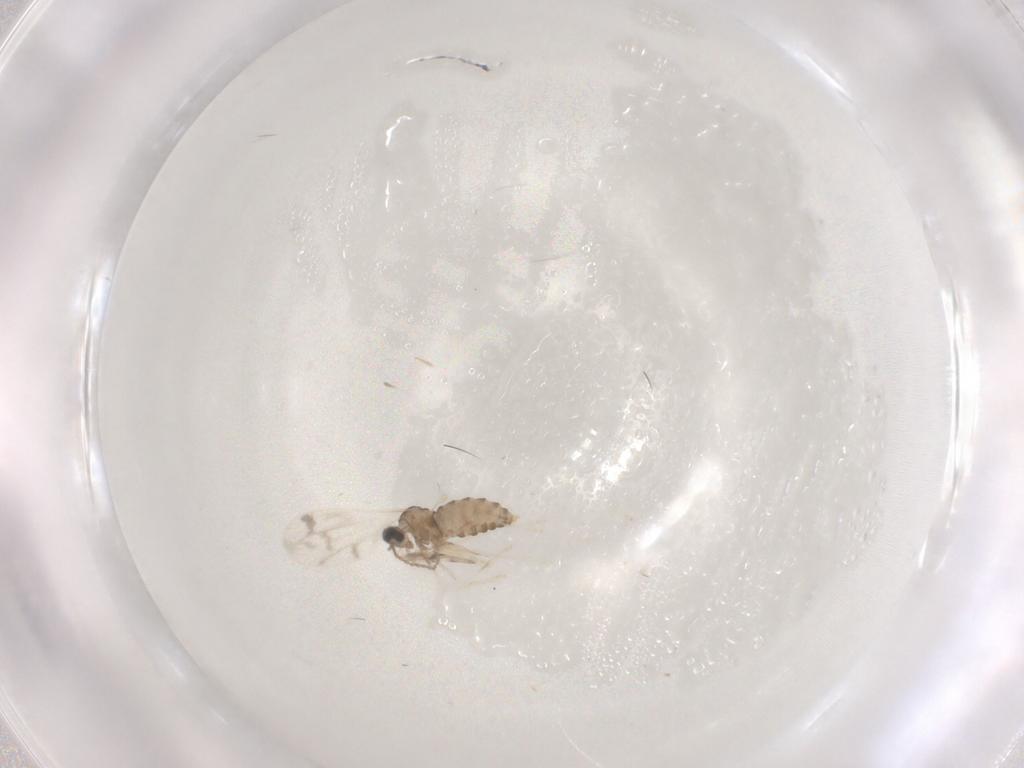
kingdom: Animalia
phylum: Arthropoda
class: Insecta
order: Diptera
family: Cecidomyiidae
